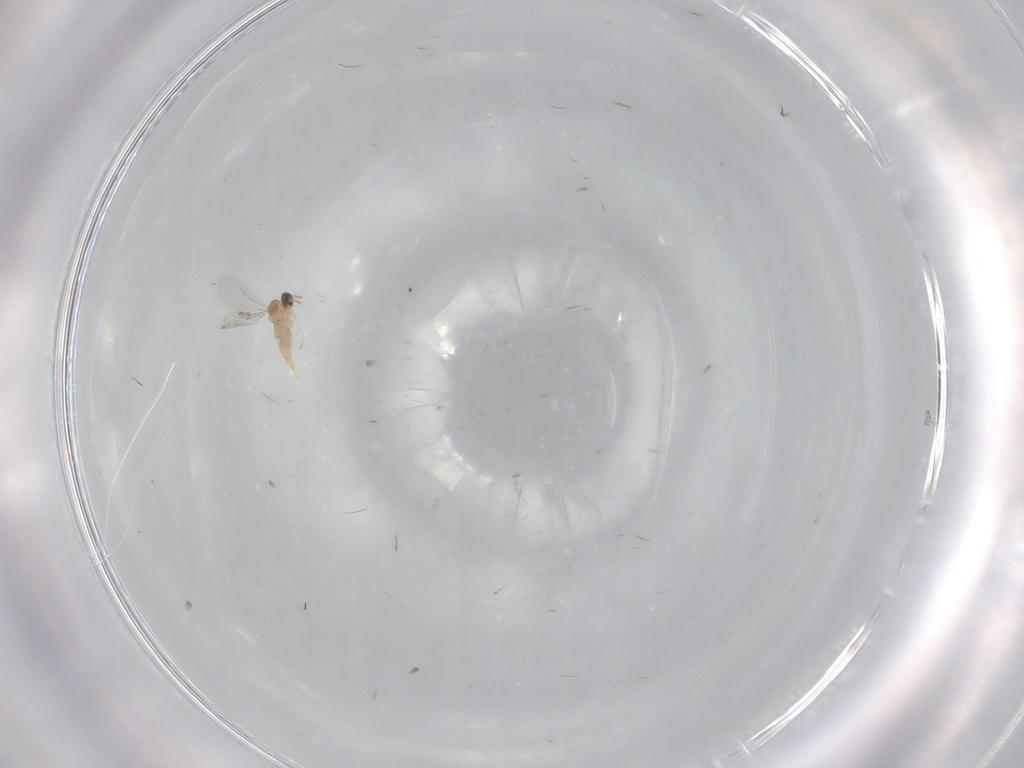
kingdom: Animalia
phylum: Arthropoda
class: Insecta
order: Diptera
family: Cecidomyiidae
